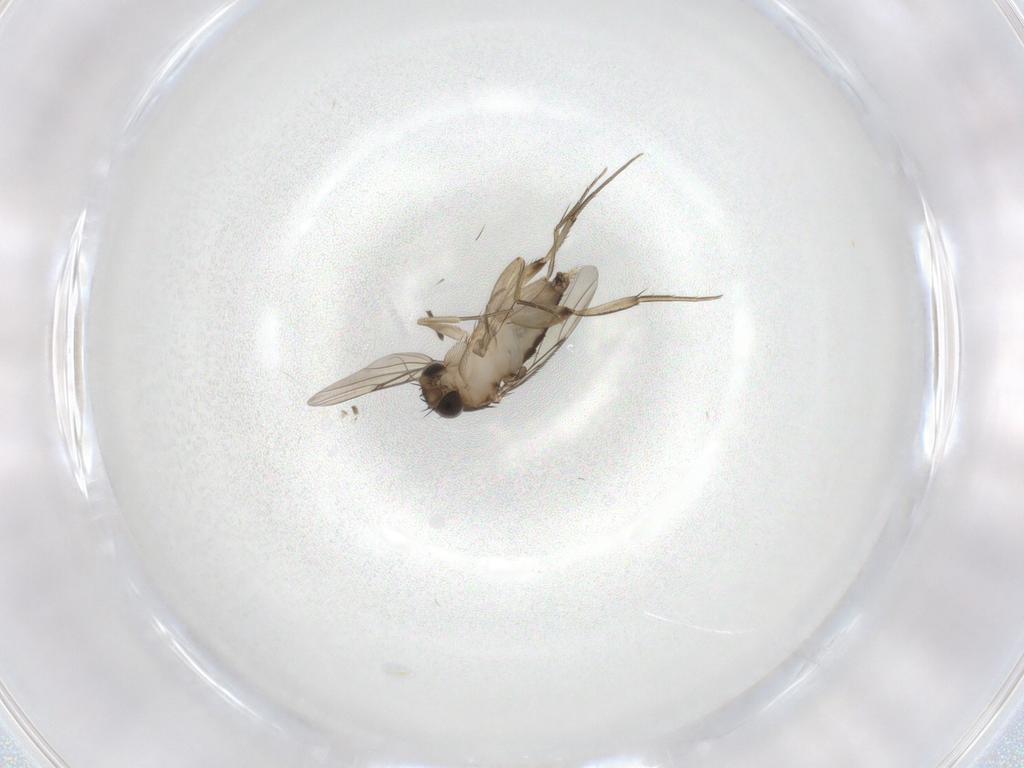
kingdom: Animalia
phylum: Arthropoda
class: Insecta
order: Diptera
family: Phoridae
